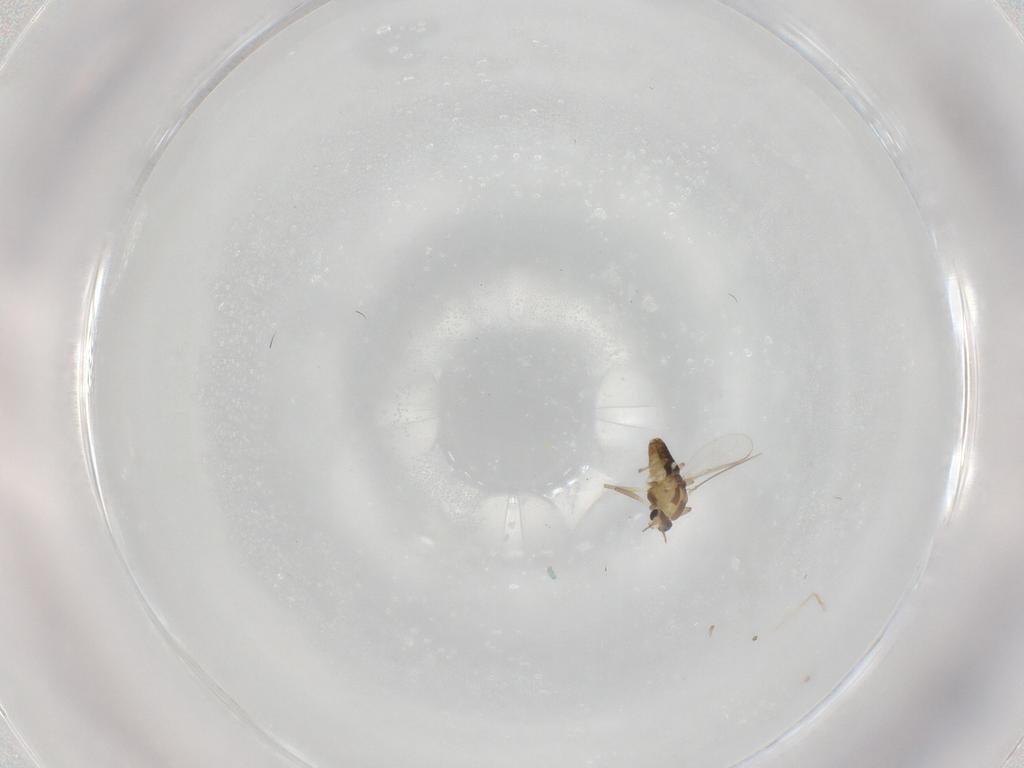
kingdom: Animalia
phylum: Arthropoda
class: Insecta
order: Diptera
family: Chironomidae
